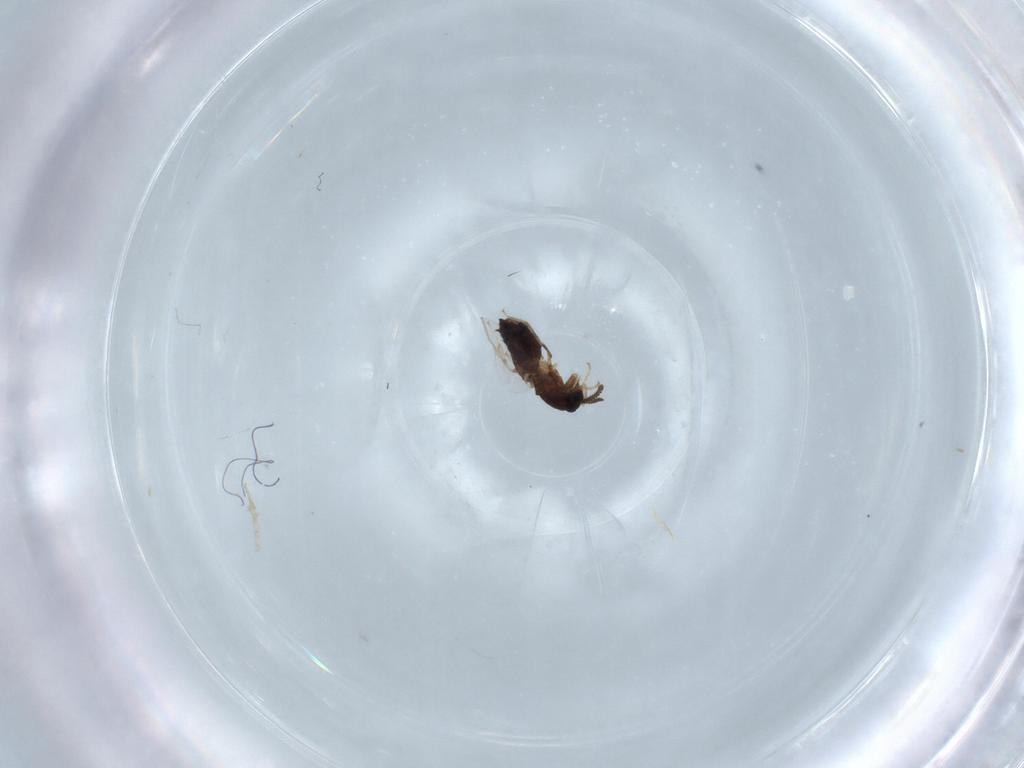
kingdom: Animalia
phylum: Arthropoda
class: Insecta
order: Diptera
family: Scatopsidae
